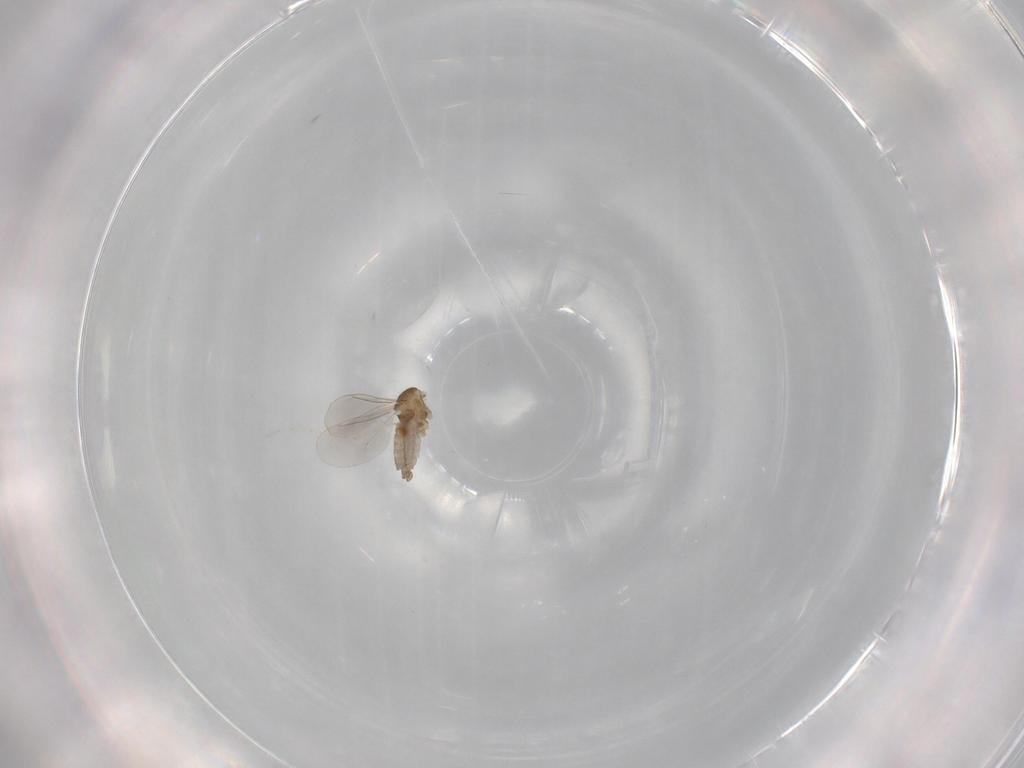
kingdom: Animalia
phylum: Arthropoda
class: Insecta
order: Diptera
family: Cecidomyiidae
